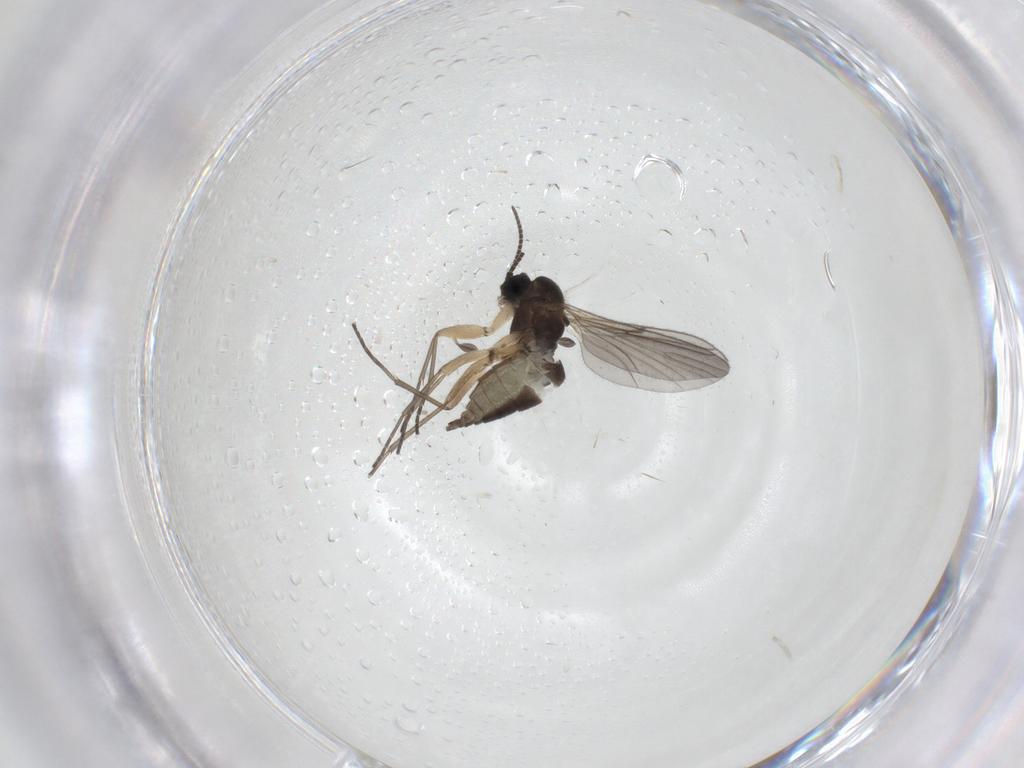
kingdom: Animalia
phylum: Arthropoda
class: Insecta
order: Diptera
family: Sciaridae
